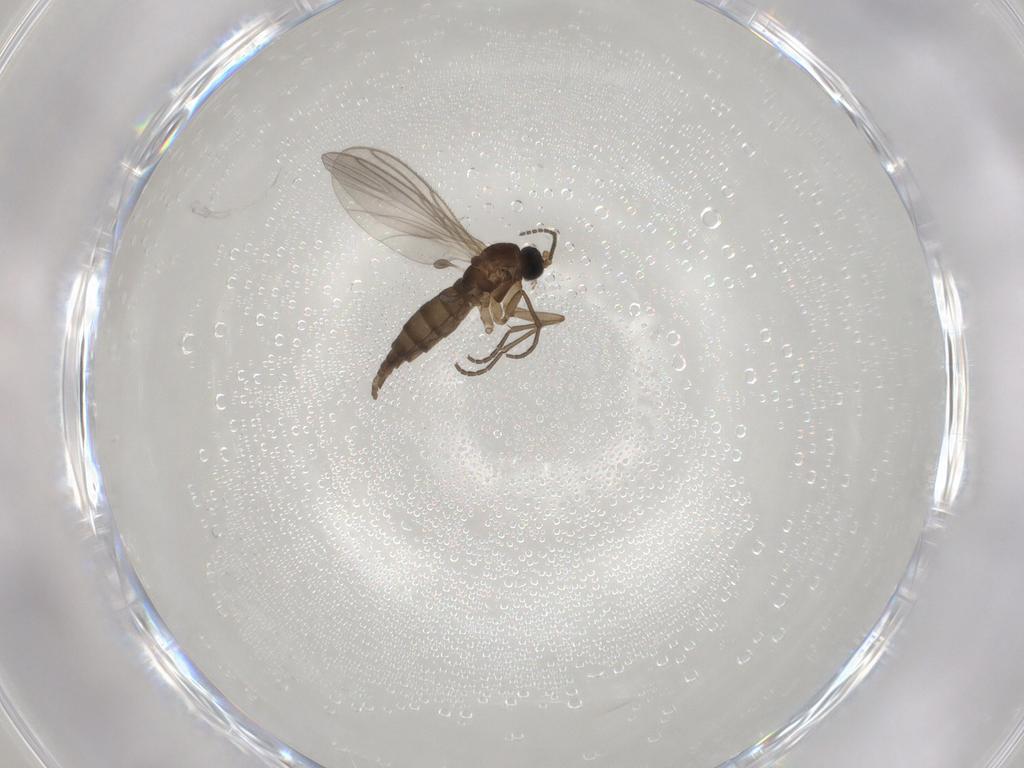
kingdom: Animalia
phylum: Arthropoda
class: Insecta
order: Diptera
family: Sciaridae
